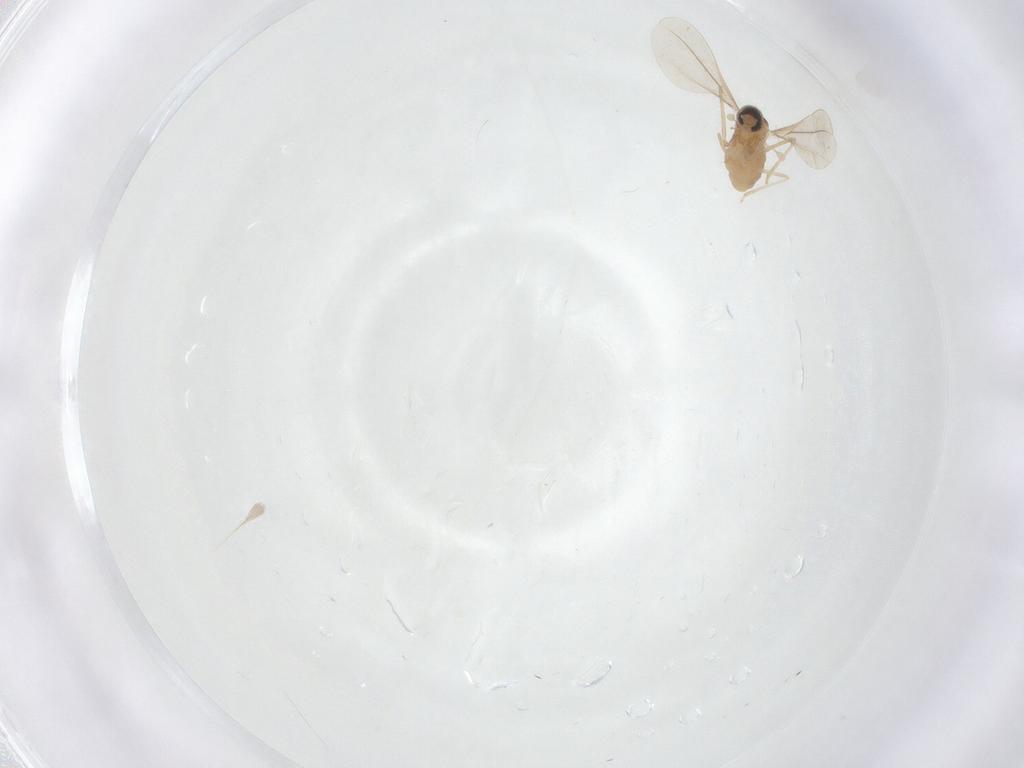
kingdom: Animalia
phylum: Arthropoda
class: Insecta
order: Diptera
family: Cecidomyiidae
